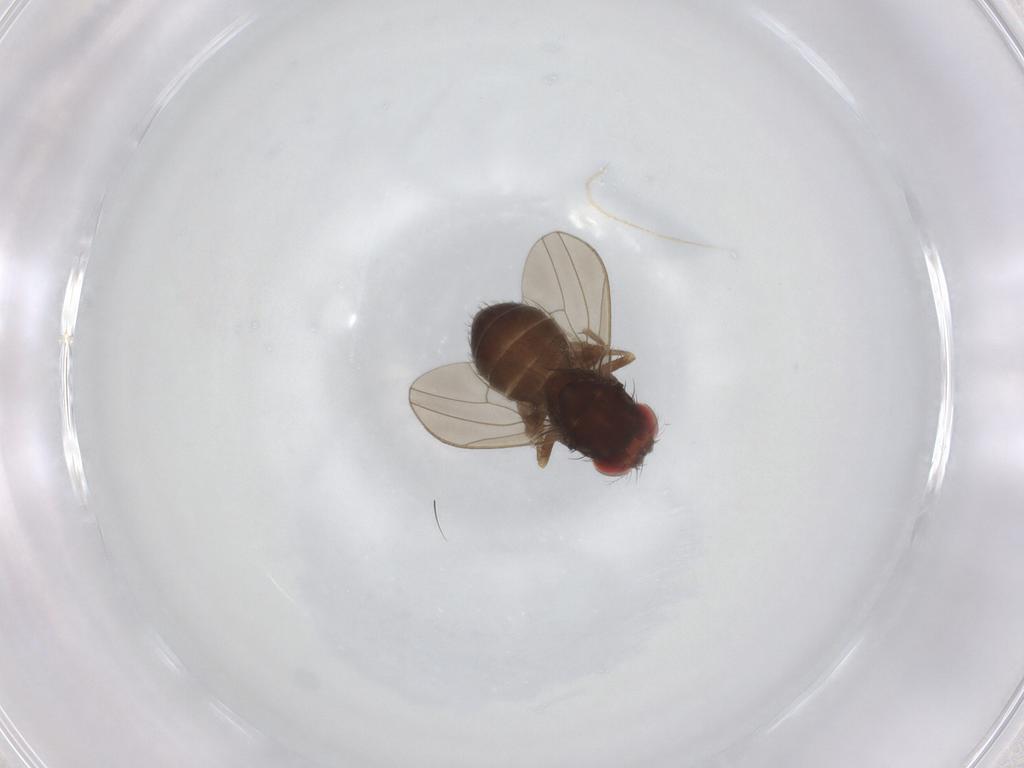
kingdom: Animalia
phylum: Arthropoda
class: Insecta
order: Diptera
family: Drosophilidae
